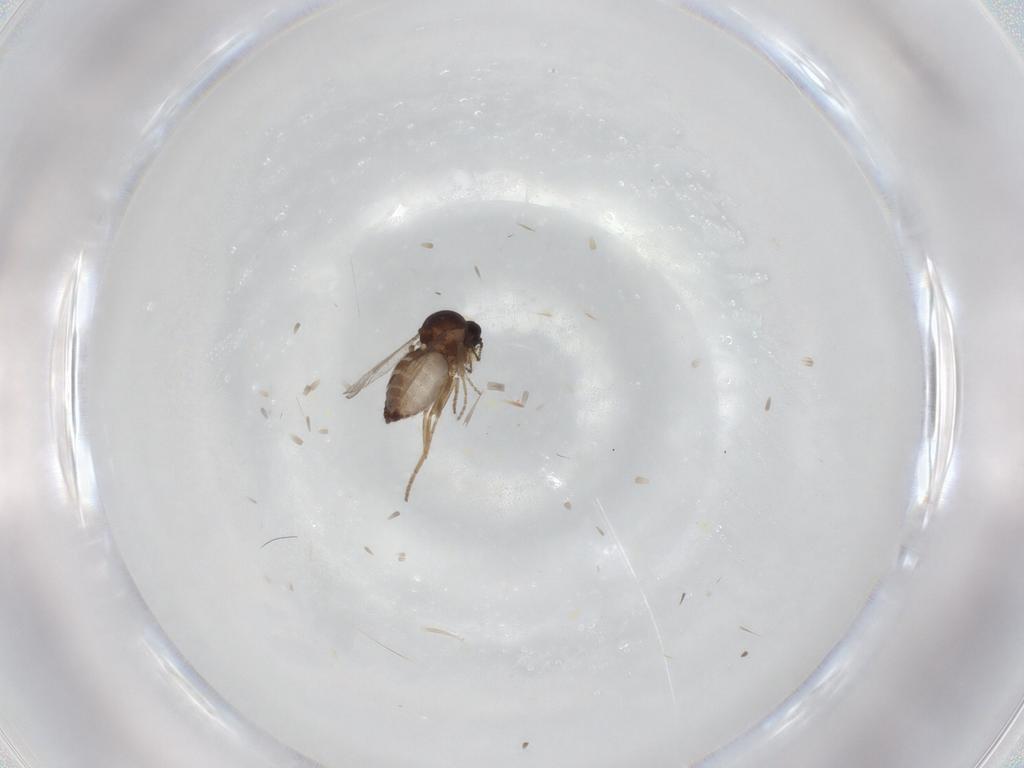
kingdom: Animalia
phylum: Arthropoda
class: Insecta
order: Diptera
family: Ceratopogonidae
